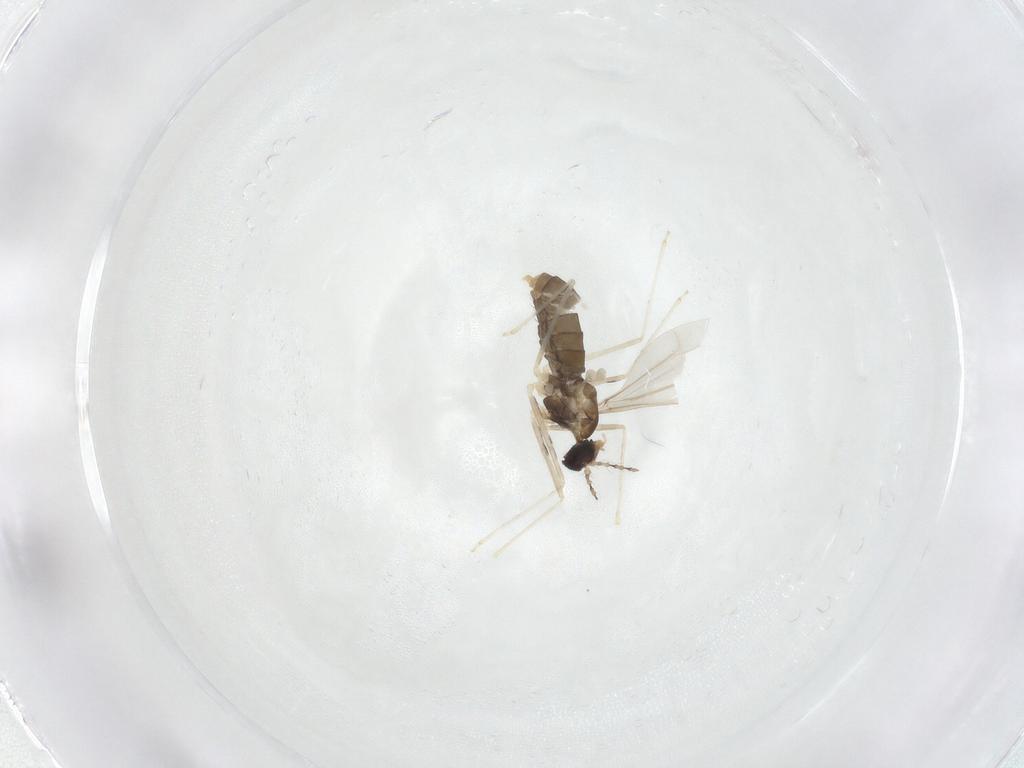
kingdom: Animalia
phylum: Arthropoda
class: Insecta
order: Diptera
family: Cecidomyiidae
